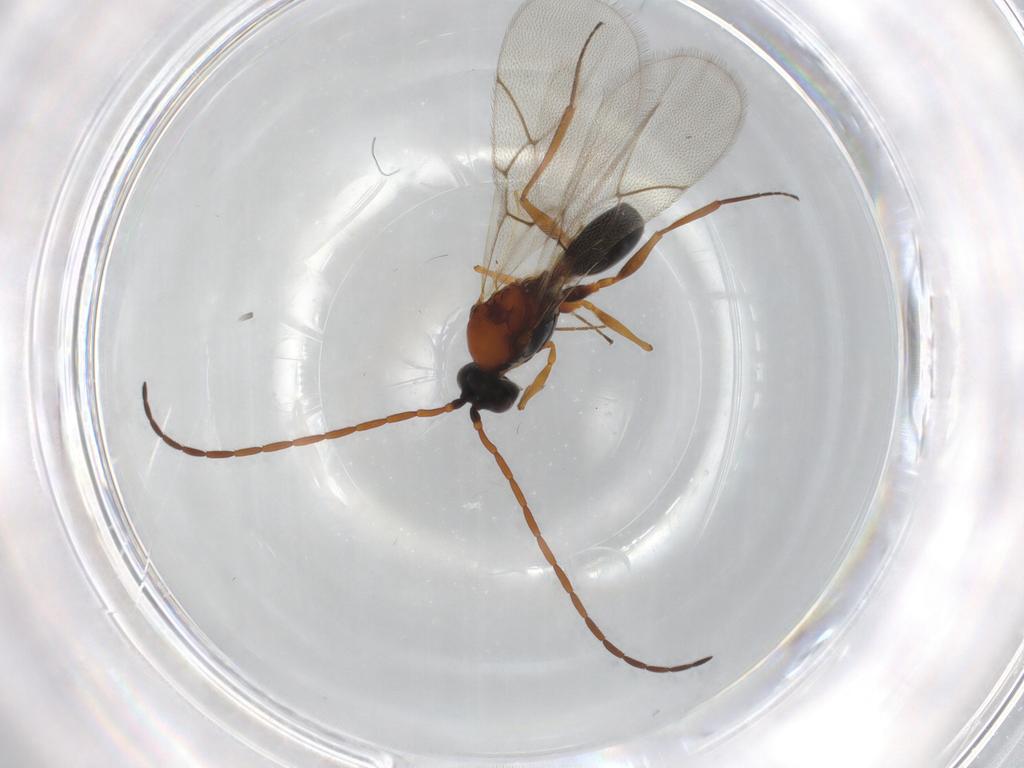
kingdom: Animalia
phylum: Arthropoda
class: Insecta
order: Hymenoptera
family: Figitidae
